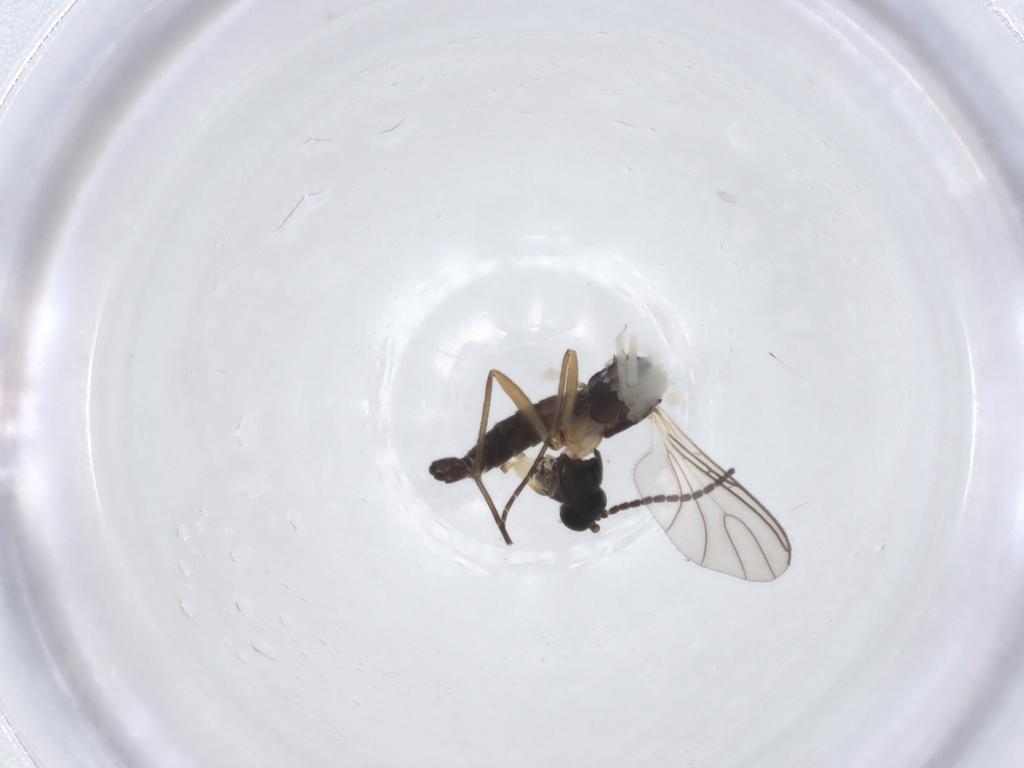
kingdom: Animalia
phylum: Arthropoda
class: Insecta
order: Diptera
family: Sciaridae
